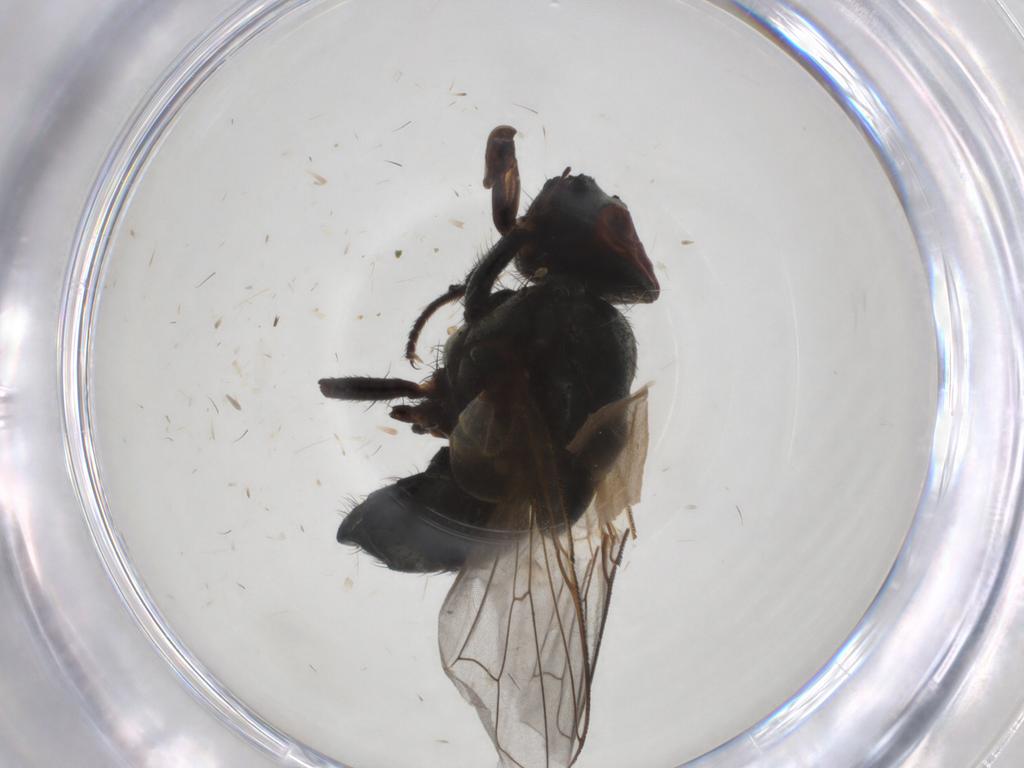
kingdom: Animalia
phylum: Arthropoda
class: Insecta
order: Diptera
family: Muscidae
